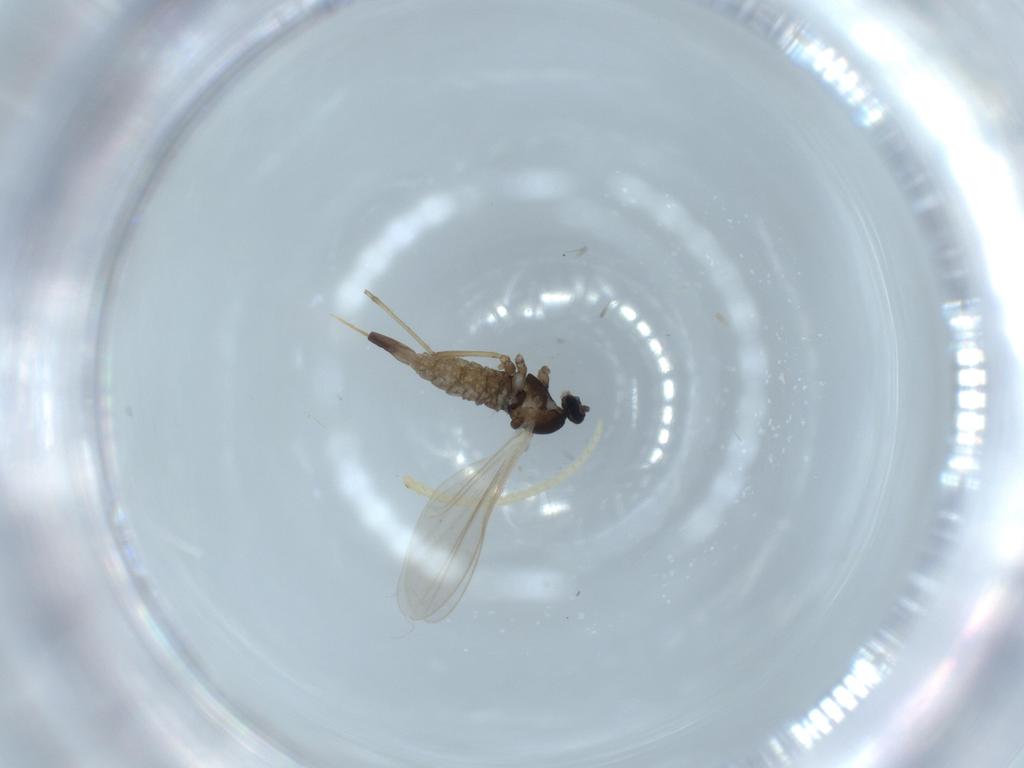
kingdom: Animalia
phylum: Arthropoda
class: Insecta
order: Diptera
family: Cecidomyiidae
